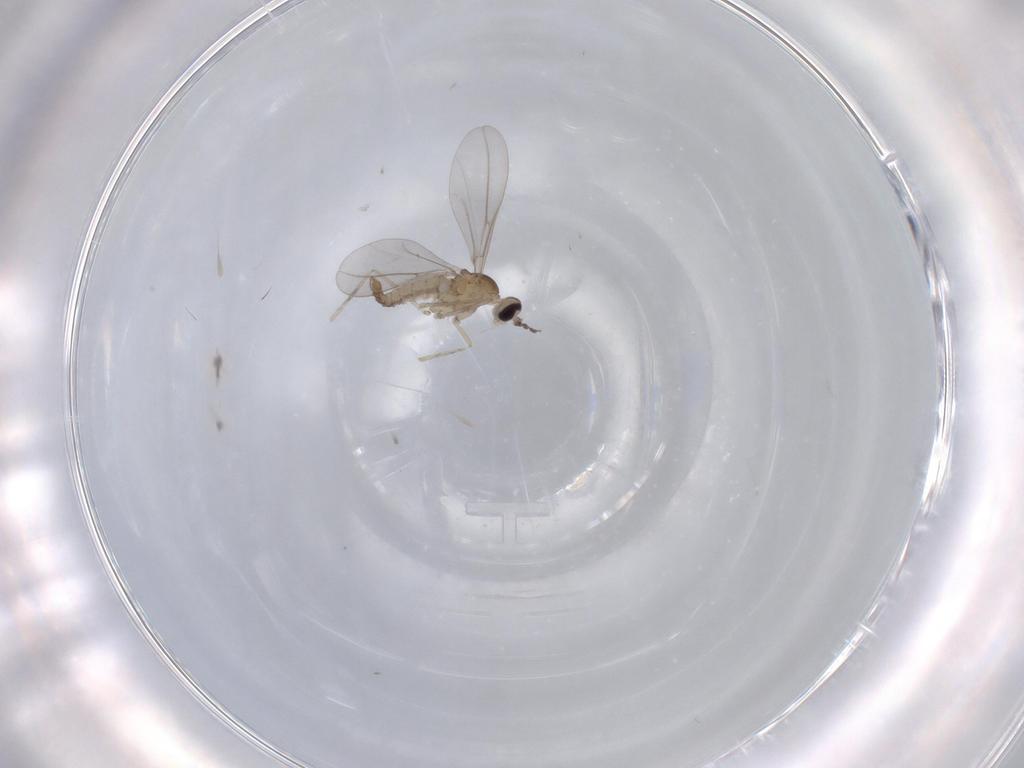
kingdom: Animalia
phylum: Arthropoda
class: Insecta
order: Diptera
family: Cecidomyiidae
